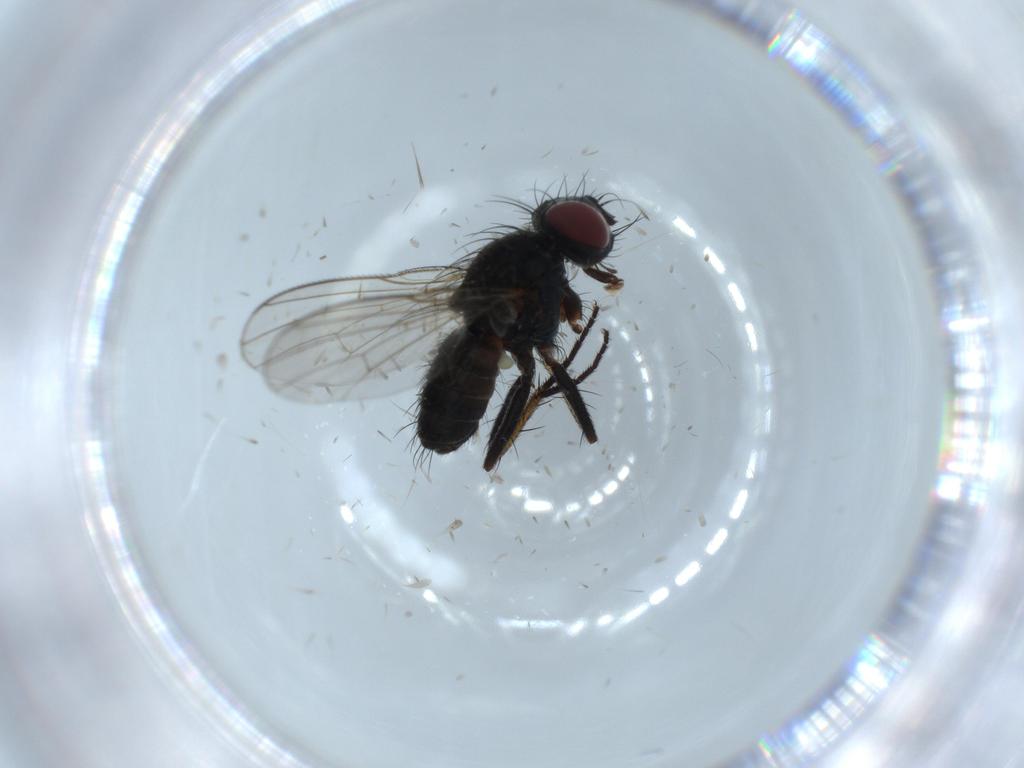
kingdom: Animalia
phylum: Arthropoda
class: Insecta
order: Diptera
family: Muscidae
